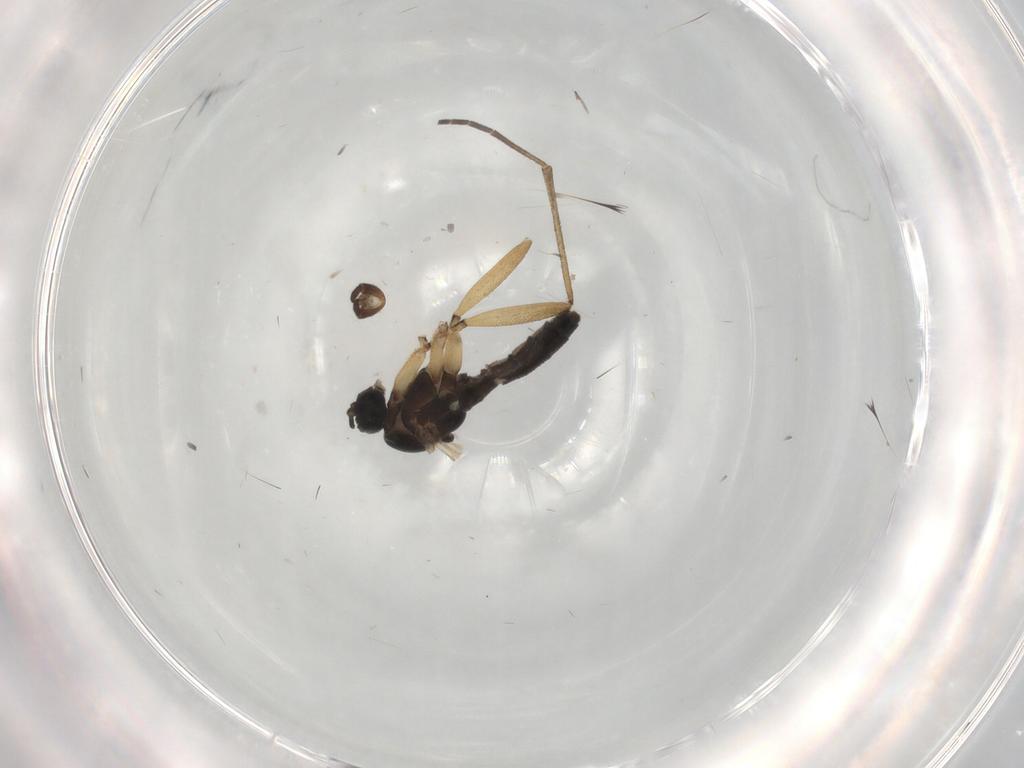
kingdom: Animalia
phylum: Arthropoda
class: Insecta
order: Diptera
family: Sciaridae
